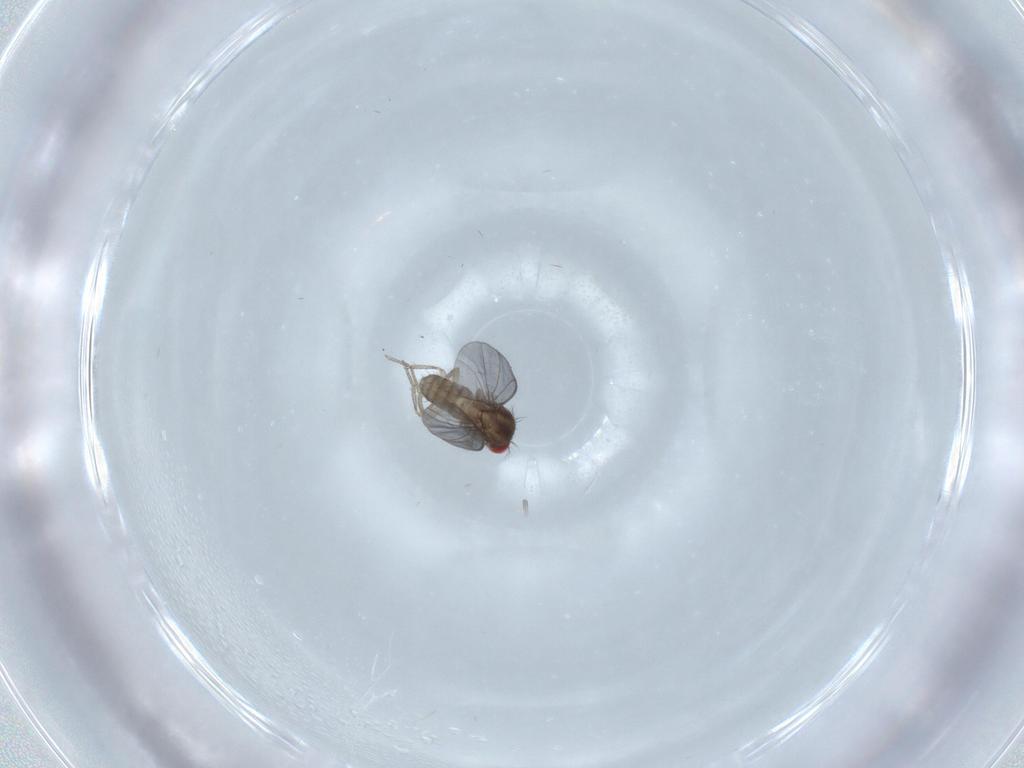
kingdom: Animalia
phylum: Arthropoda
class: Insecta
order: Diptera
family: Drosophilidae
